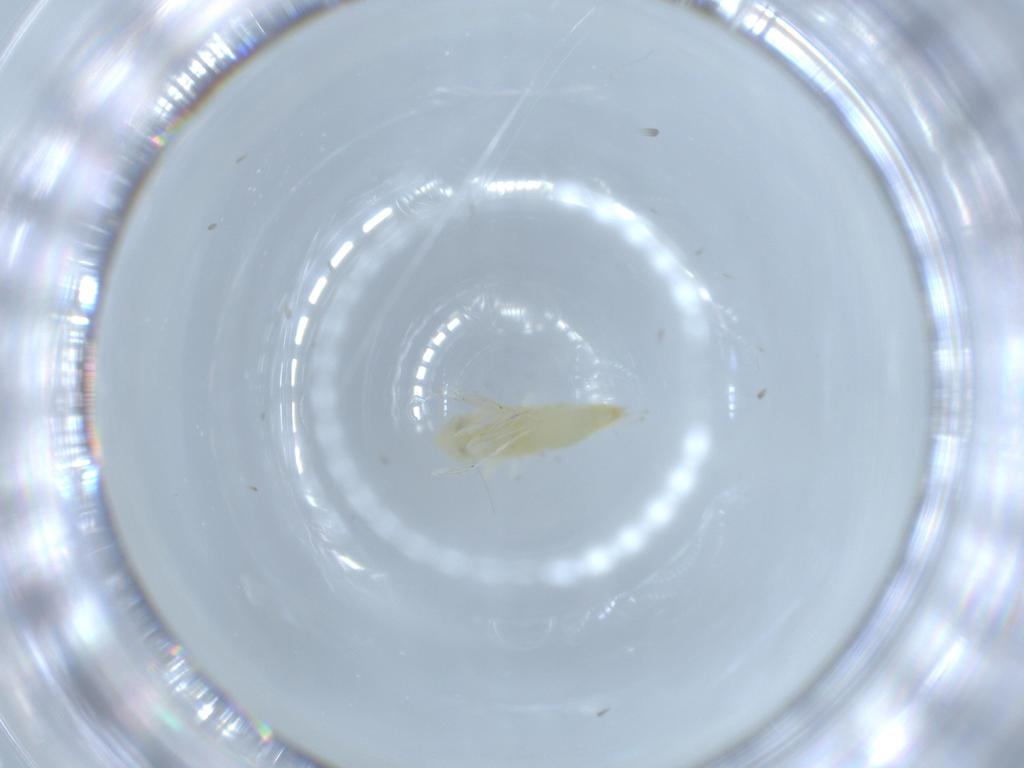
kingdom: Animalia
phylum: Arthropoda
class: Insecta
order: Hemiptera
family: Cicadellidae
